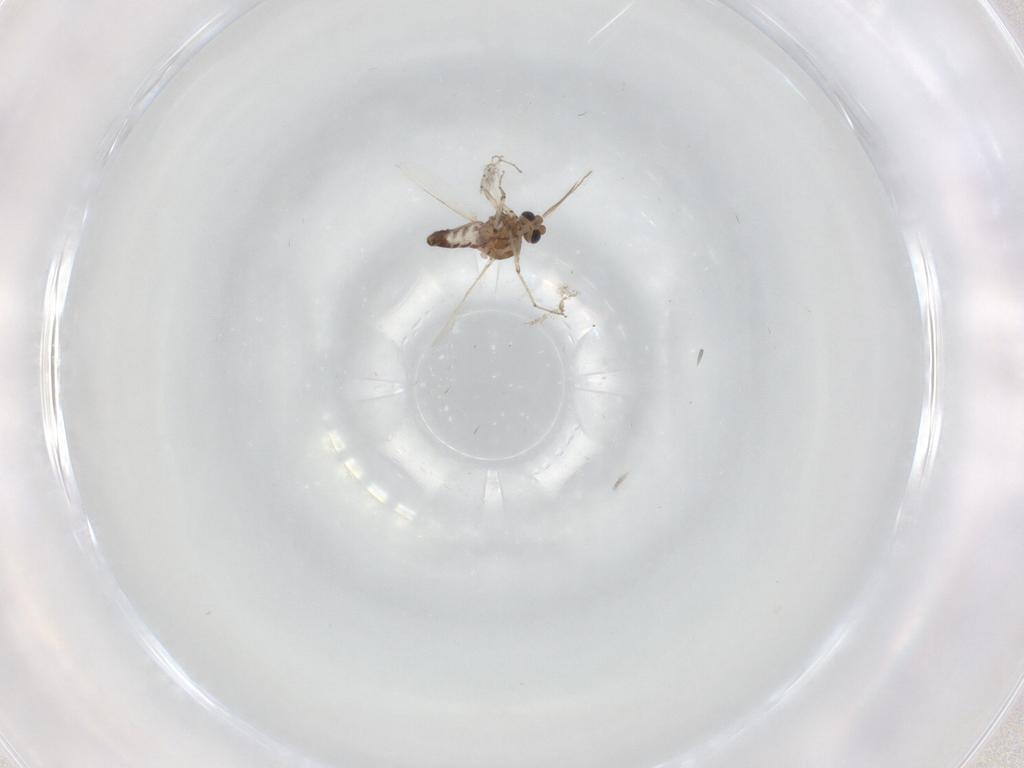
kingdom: Animalia
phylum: Arthropoda
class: Insecta
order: Diptera
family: Ceratopogonidae
